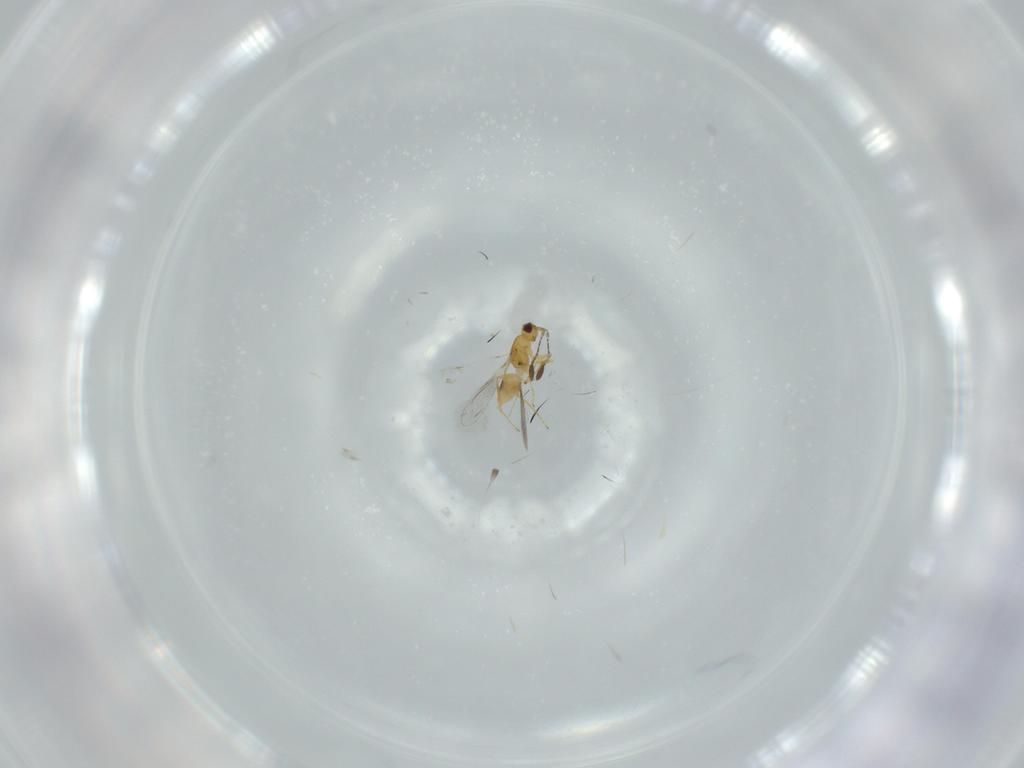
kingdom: Animalia
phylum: Arthropoda
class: Insecta
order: Hymenoptera
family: Mymaridae
